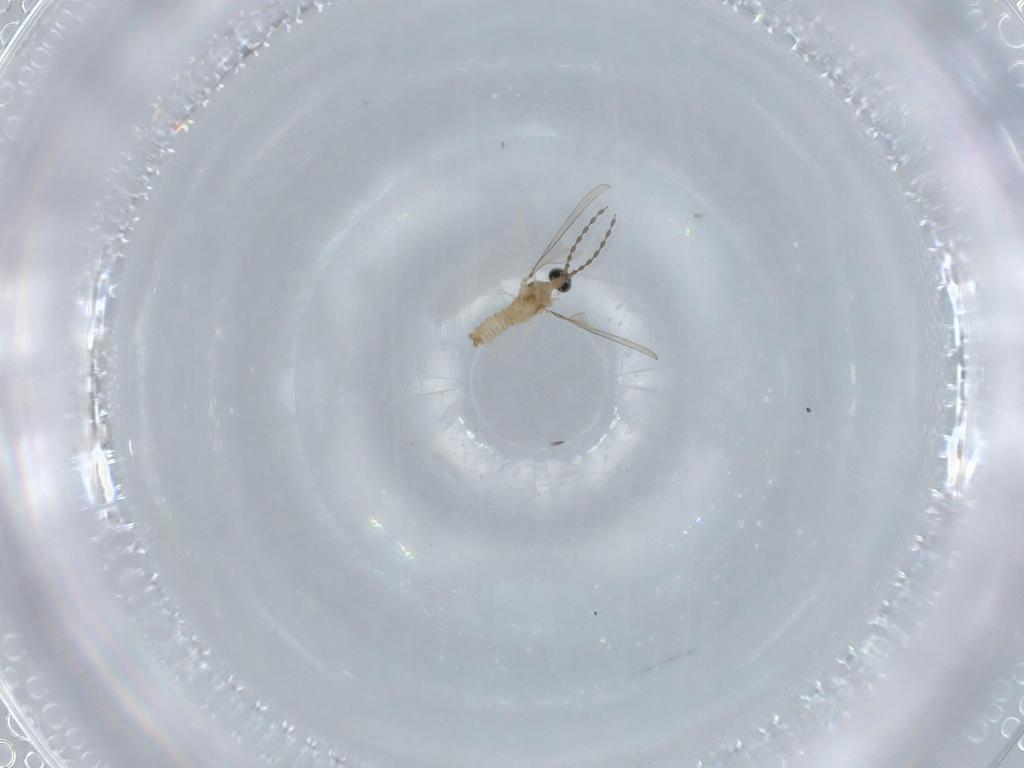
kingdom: Animalia
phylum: Arthropoda
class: Insecta
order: Diptera
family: Cecidomyiidae
